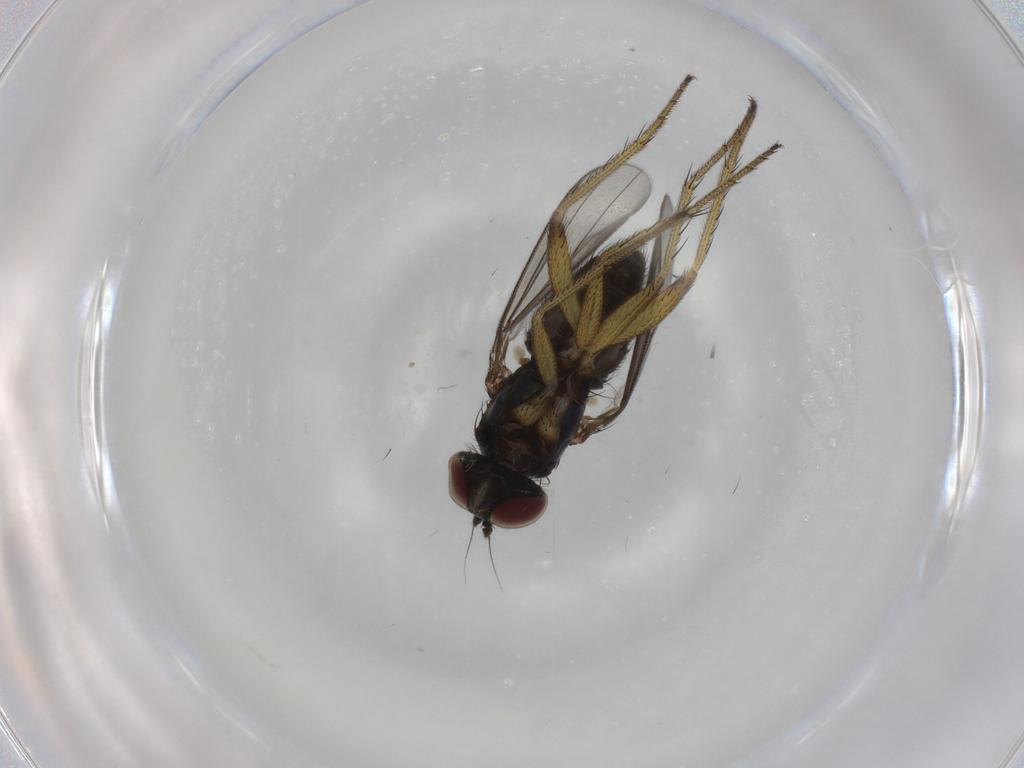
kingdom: Animalia
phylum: Arthropoda
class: Insecta
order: Diptera
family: Dolichopodidae
